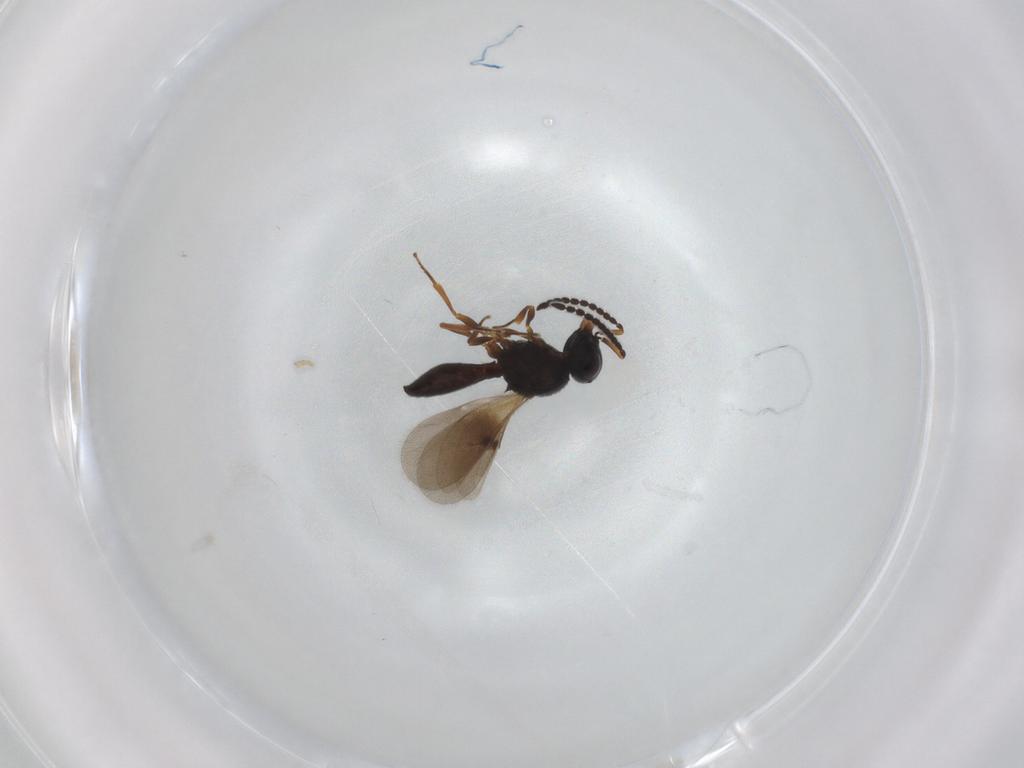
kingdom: Animalia
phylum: Arthropoda
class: Insecta
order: Hymenoptera
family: Scelionidae
